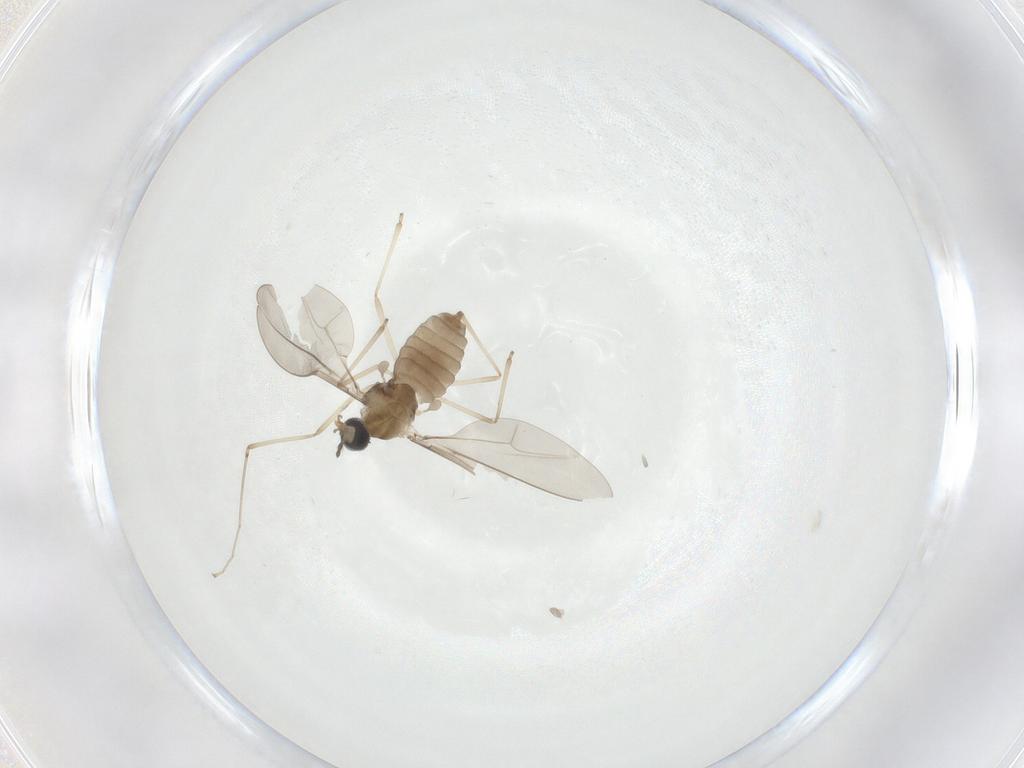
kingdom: Animalia
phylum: Arthropoda
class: Insecta
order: Diptera
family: Cecidomyiidae
